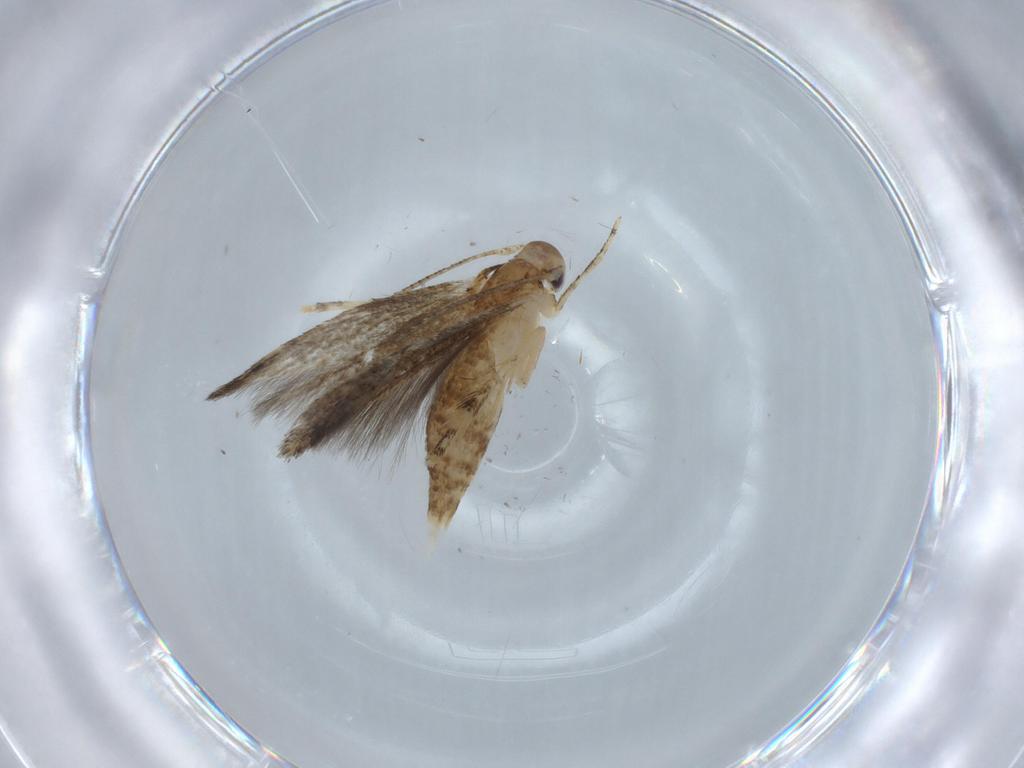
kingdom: Animalia
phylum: Arthropoda
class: Insecta
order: Lepidoptera
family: Momphidae
